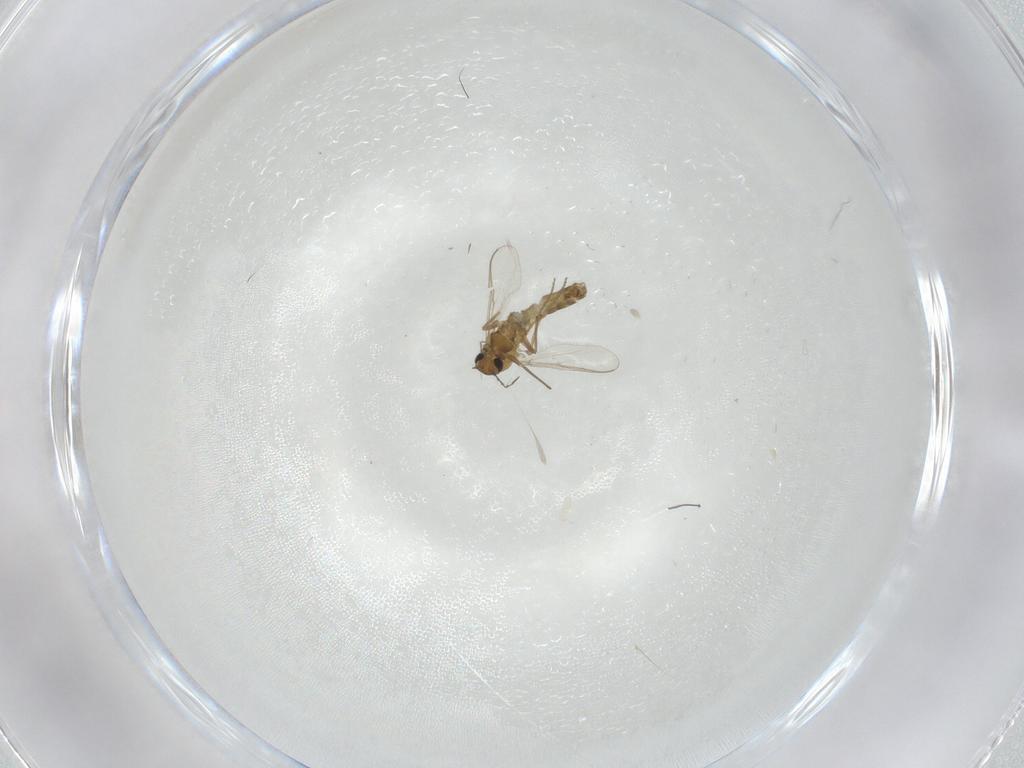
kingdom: Animalia
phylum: Arthropoda
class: Insecta
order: Diptera
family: Chironomidae
